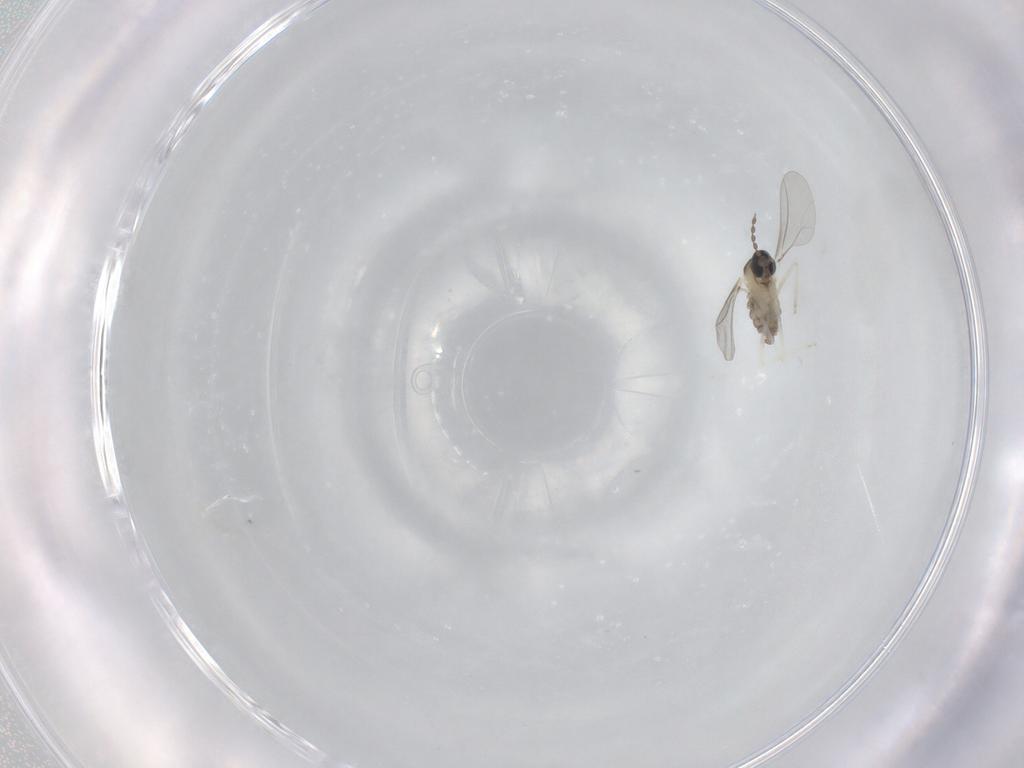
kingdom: Animalia
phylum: Arthropoda
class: Insecta
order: Diptera
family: Cecidomyiidae
